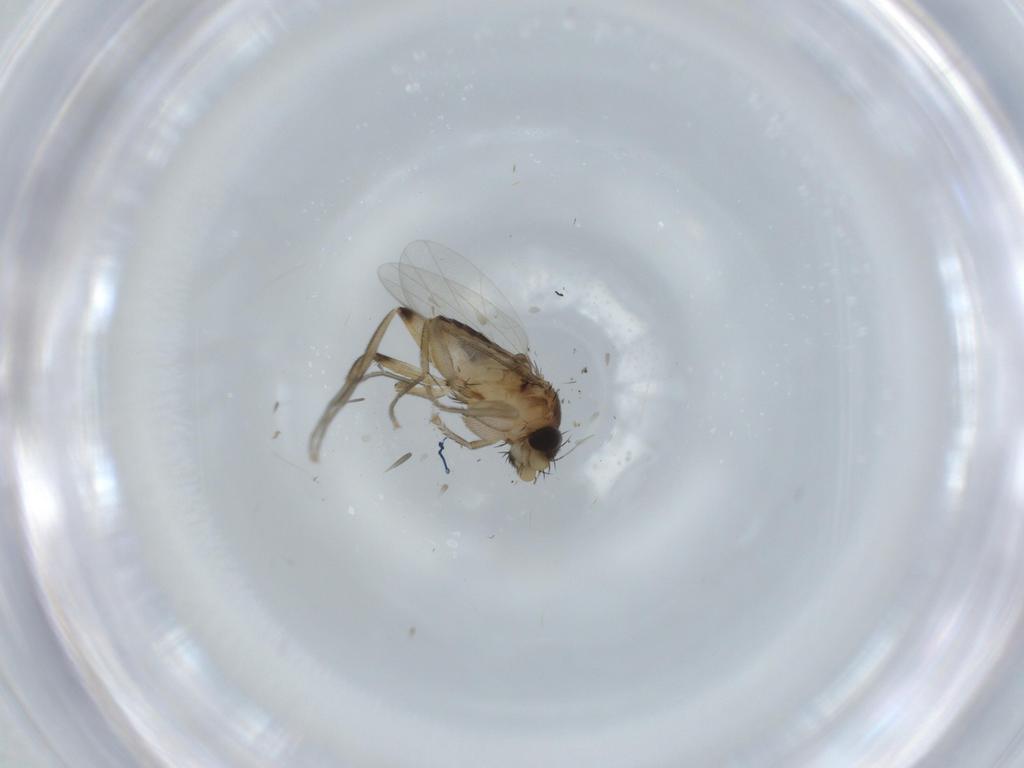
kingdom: Animalia
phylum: Arthropoda
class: Insecta
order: Diptera
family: Phoridae
